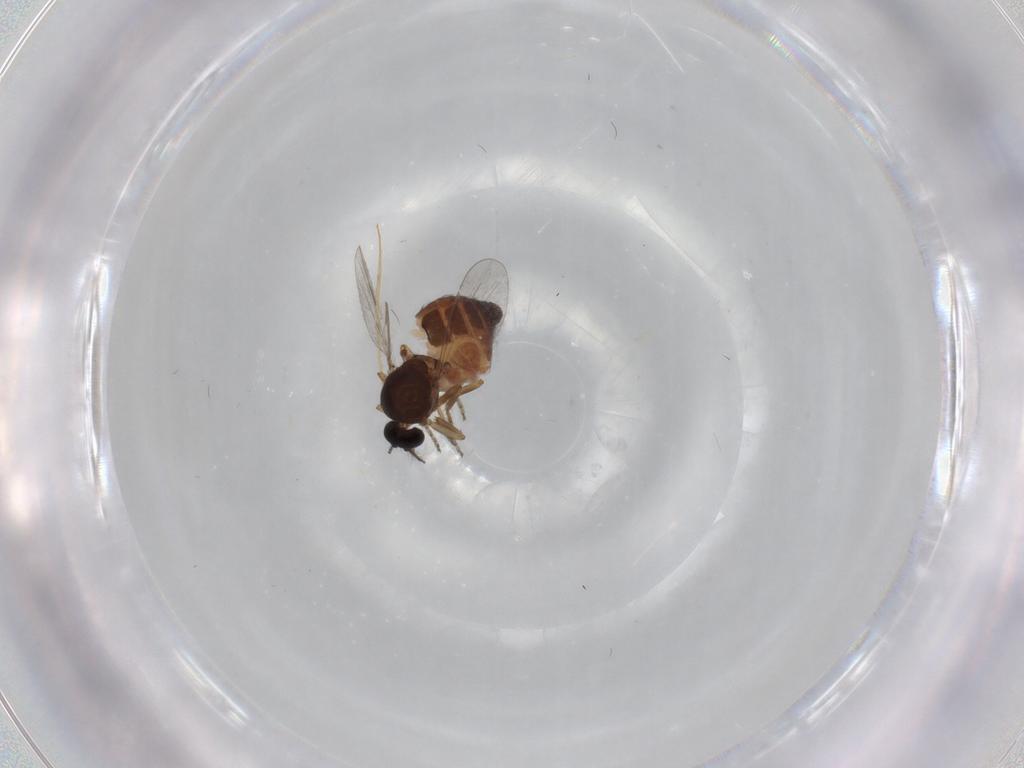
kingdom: Animalia
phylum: Arthropoda
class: Insecta
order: Diptera
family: Ceratopogonidae
